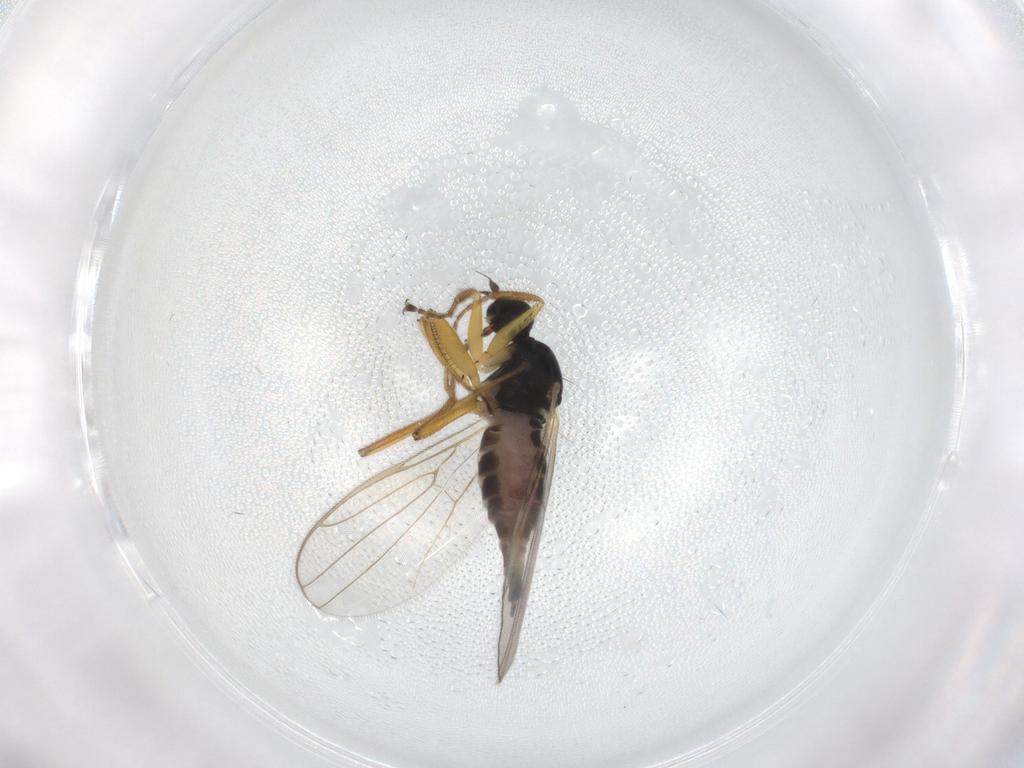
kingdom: Animalia
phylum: Arthropoda
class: Insecta
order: Diptera
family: Hybotidae
